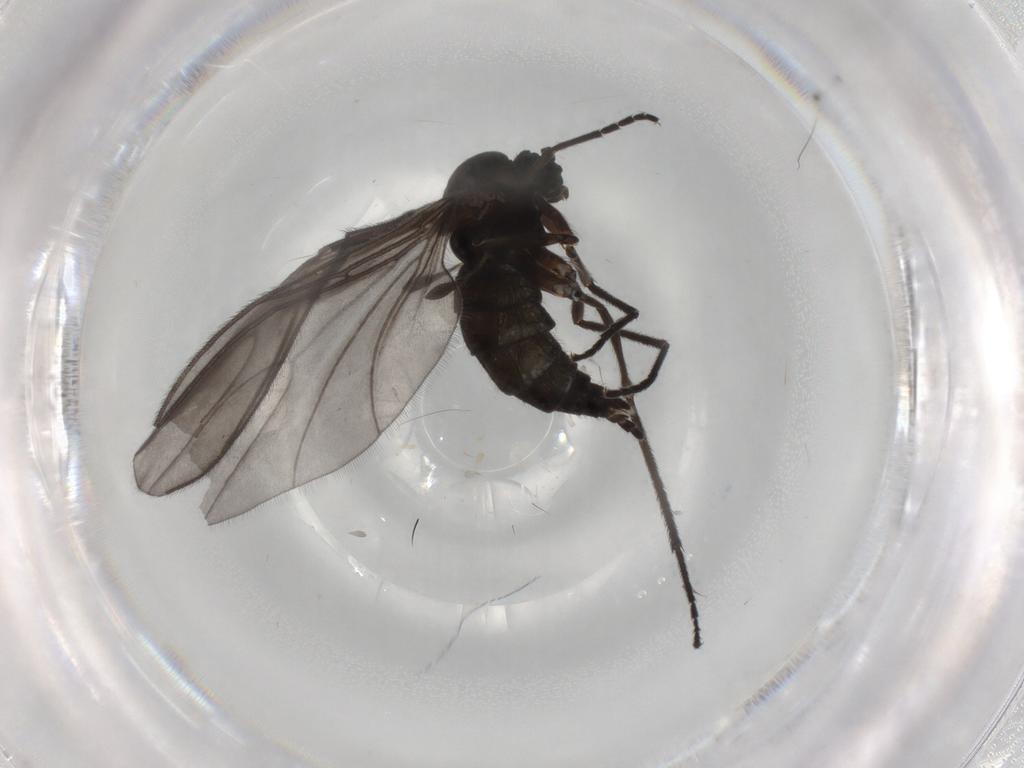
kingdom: Animalia
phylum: Arthropoda
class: Insecta
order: Diptera
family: Sciaridae
